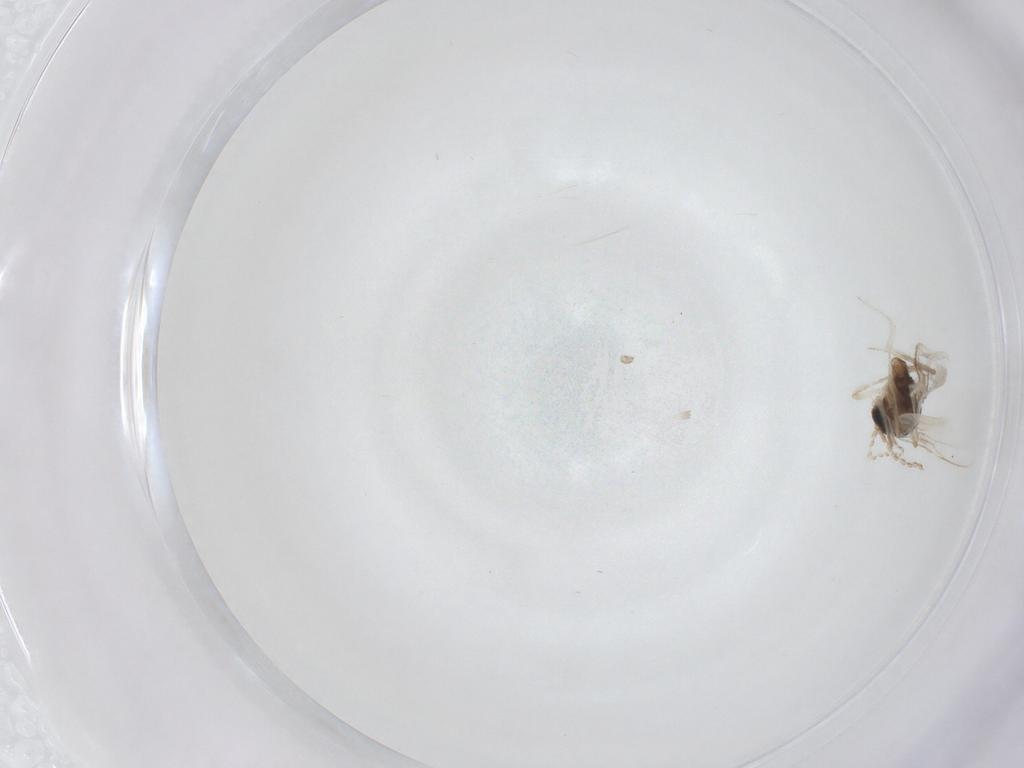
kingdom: Animalia
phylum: Arthropoda
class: Insecta
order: Diptera
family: Cecidomyiidae
